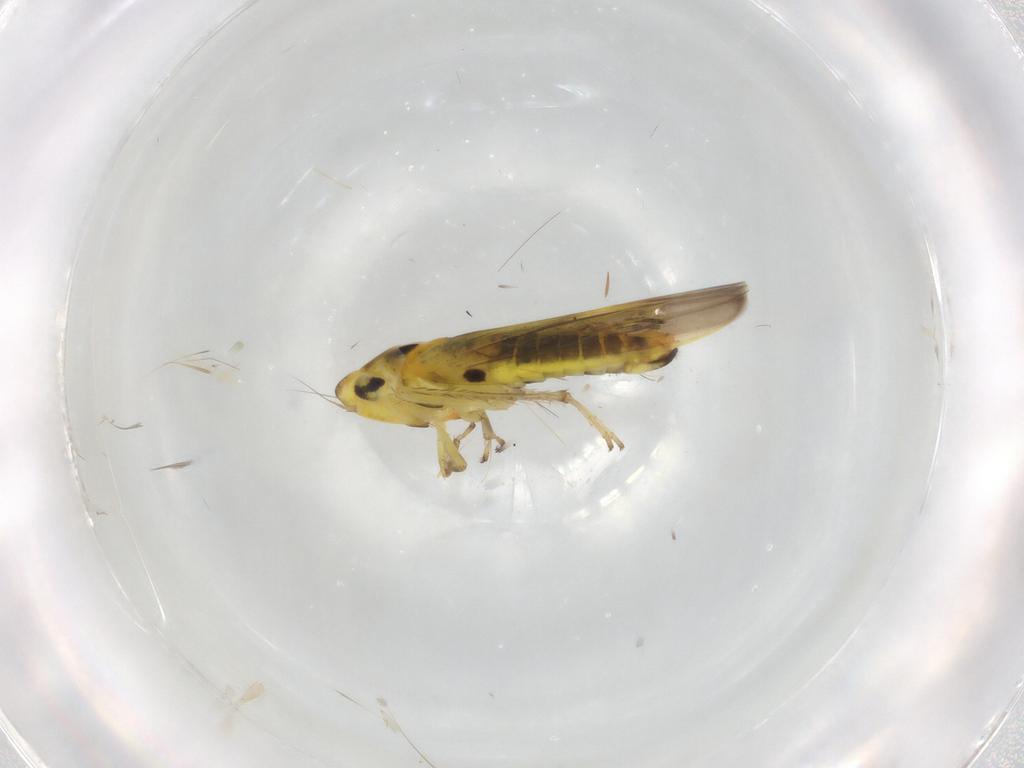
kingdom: Animalia
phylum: Arthropoda
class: Insecta
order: Hemiptera
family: Cicadellidae
